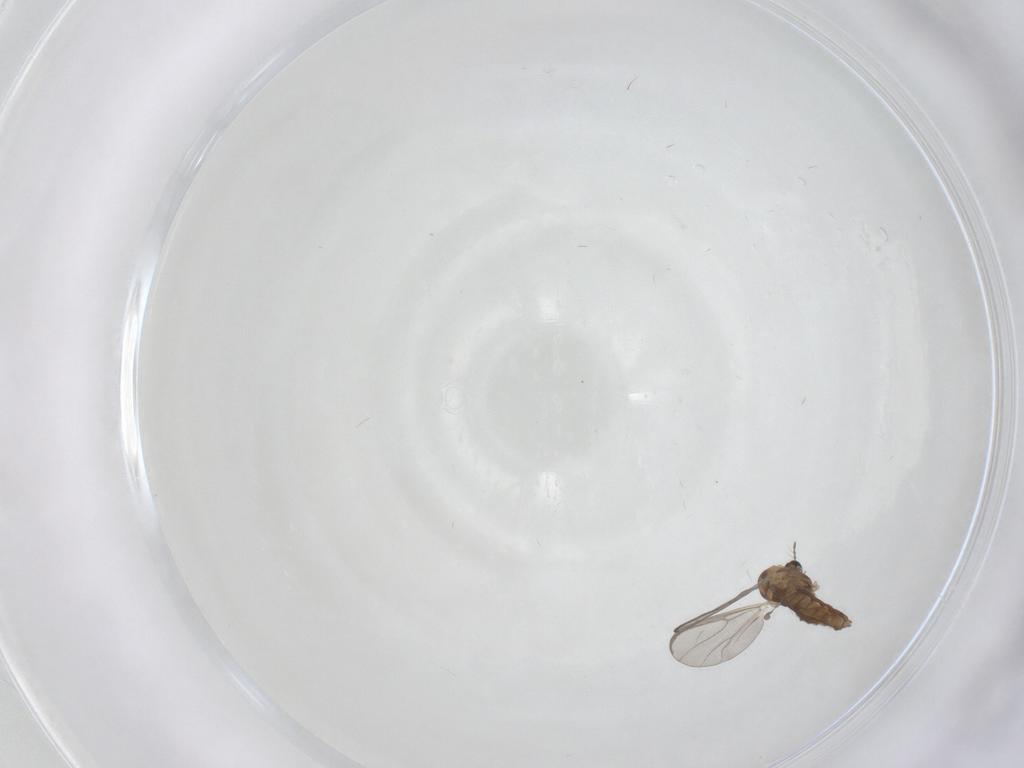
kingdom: Animalia
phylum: Arthropoda
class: Insecta
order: Diptera
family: Chironomidae
